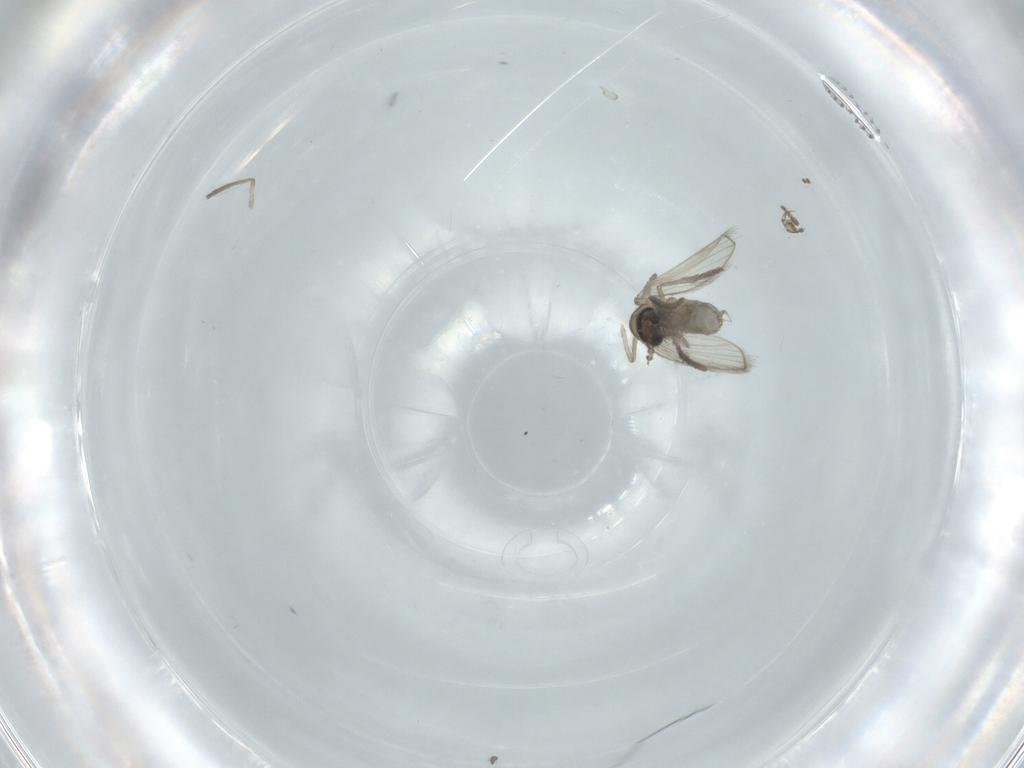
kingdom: Animalia
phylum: Arthropoda
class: Insecta
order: Diptera
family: Psychodidae
